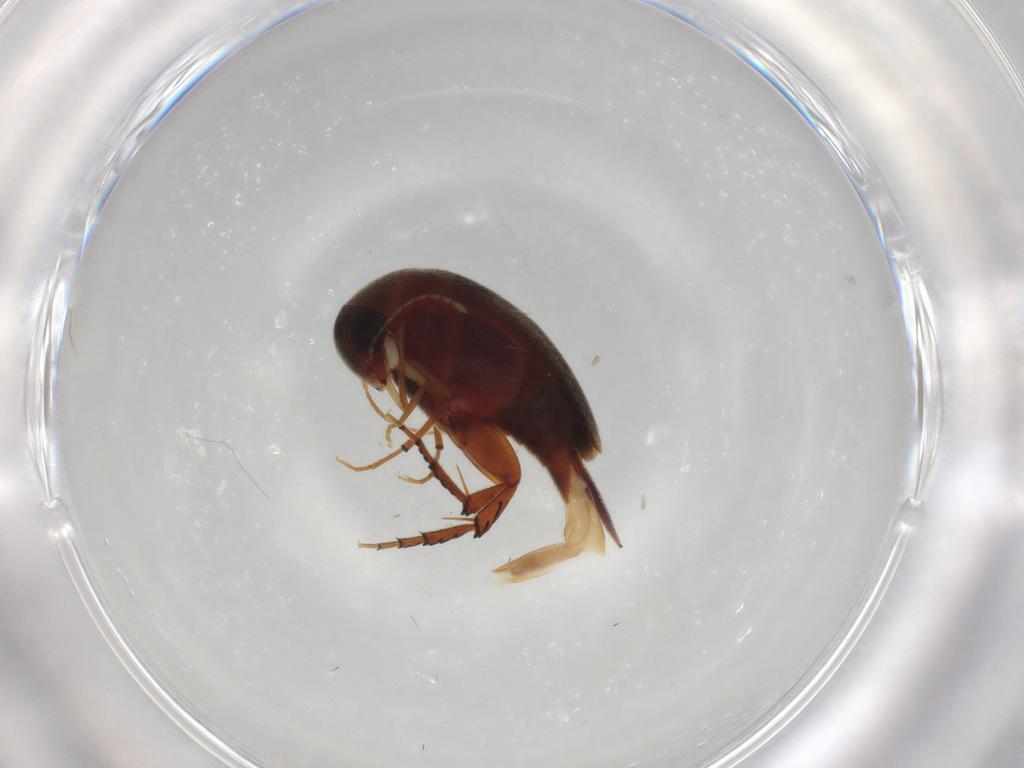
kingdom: Animalia
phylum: Arthropoda
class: Insecta
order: Coleoptera
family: Mordellidae
